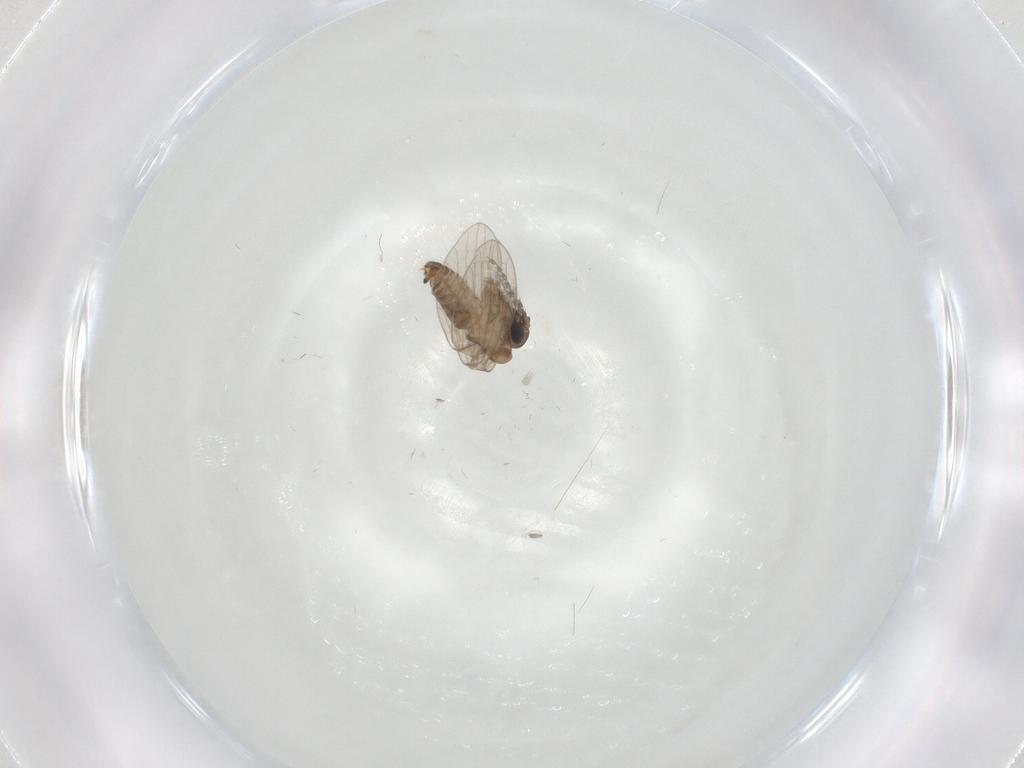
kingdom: Animalia
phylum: Arthropoda
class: Insecta
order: Diptera
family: Psychodidae
